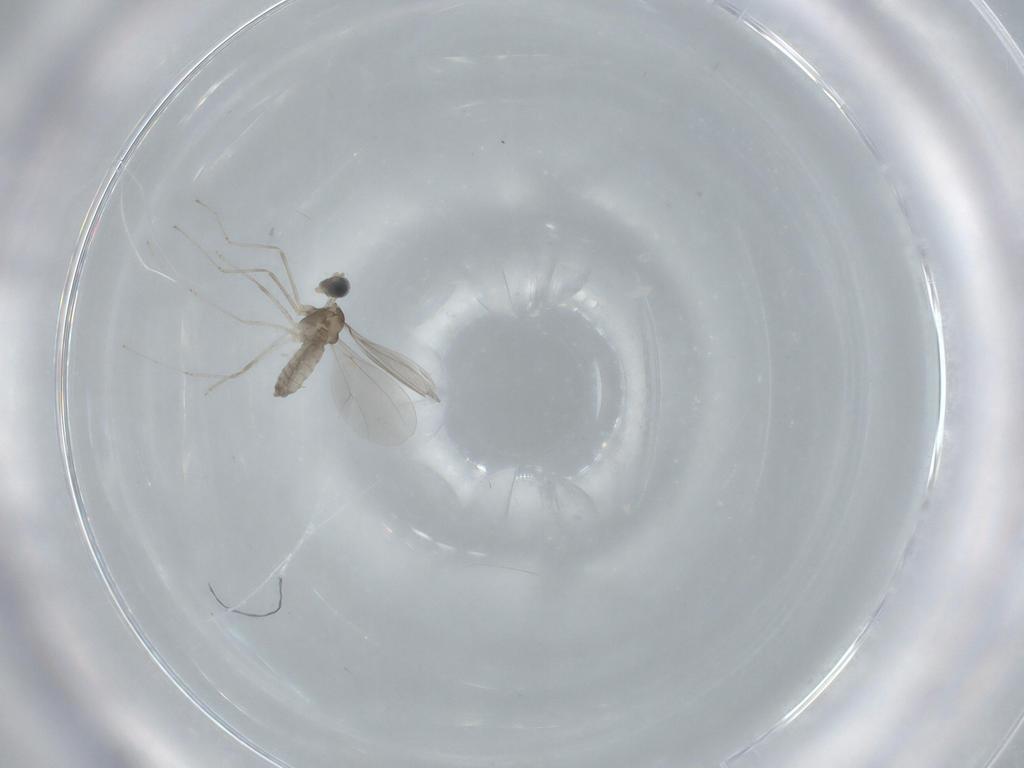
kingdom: Animalia
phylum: Arthropoda
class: Insecta
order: Diptera
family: Cecidomyiidae
